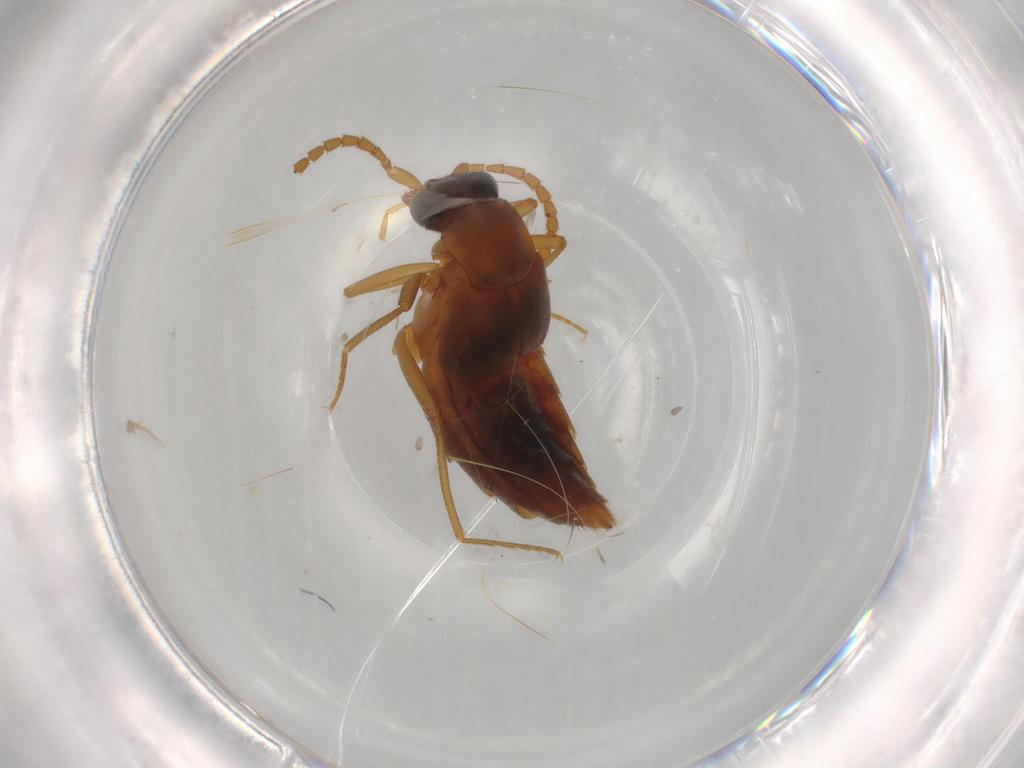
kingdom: Animalia
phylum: Arthropoda
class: Insecta
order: Coleoptera
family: Staphylinidae
